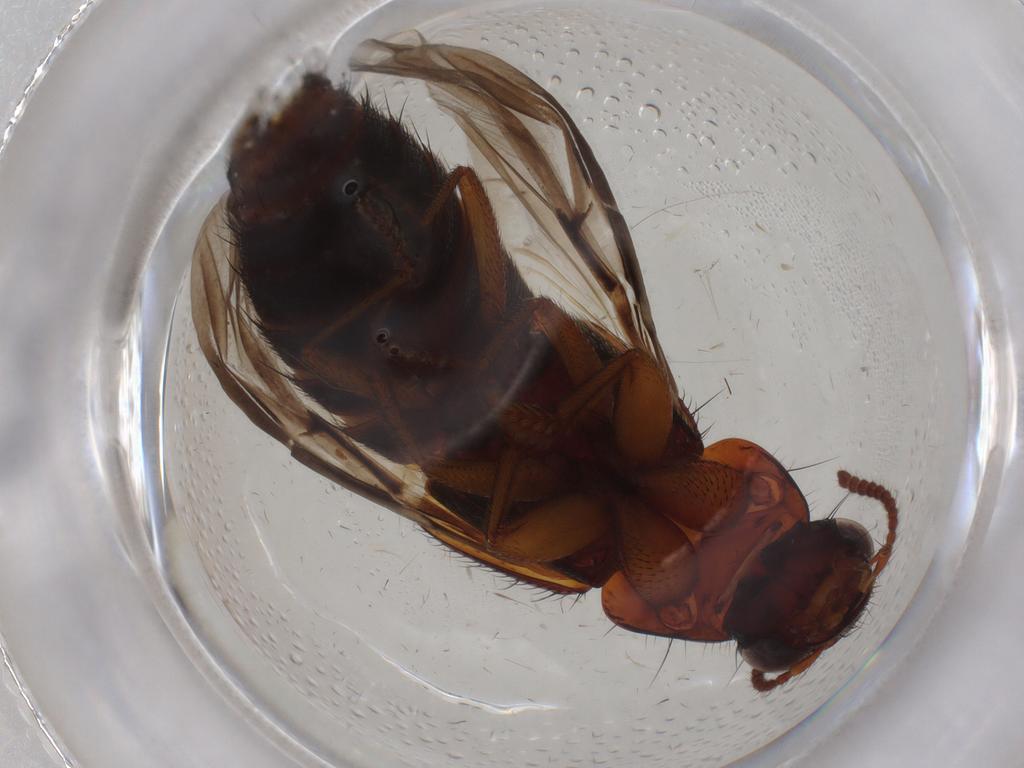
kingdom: Animalia
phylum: Arthropoda
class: Insecta
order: Coleoptera
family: Staphylinidae
